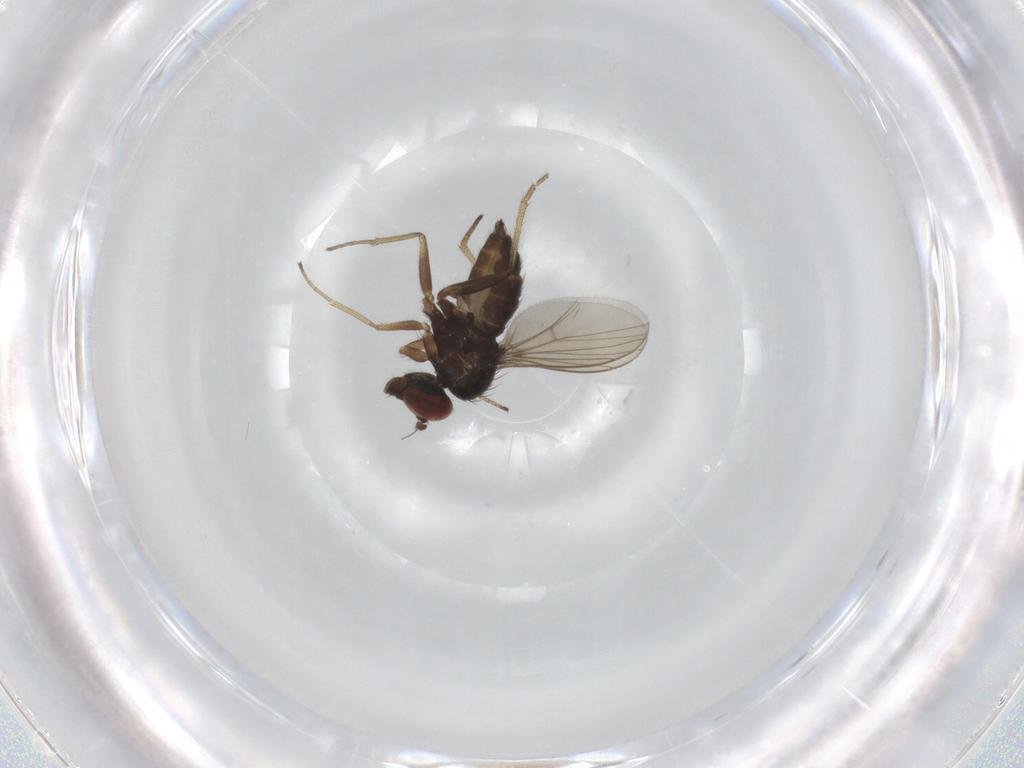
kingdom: Animalia
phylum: Arthropoda
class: Insecta
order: Diptera
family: Dolichopodidae
